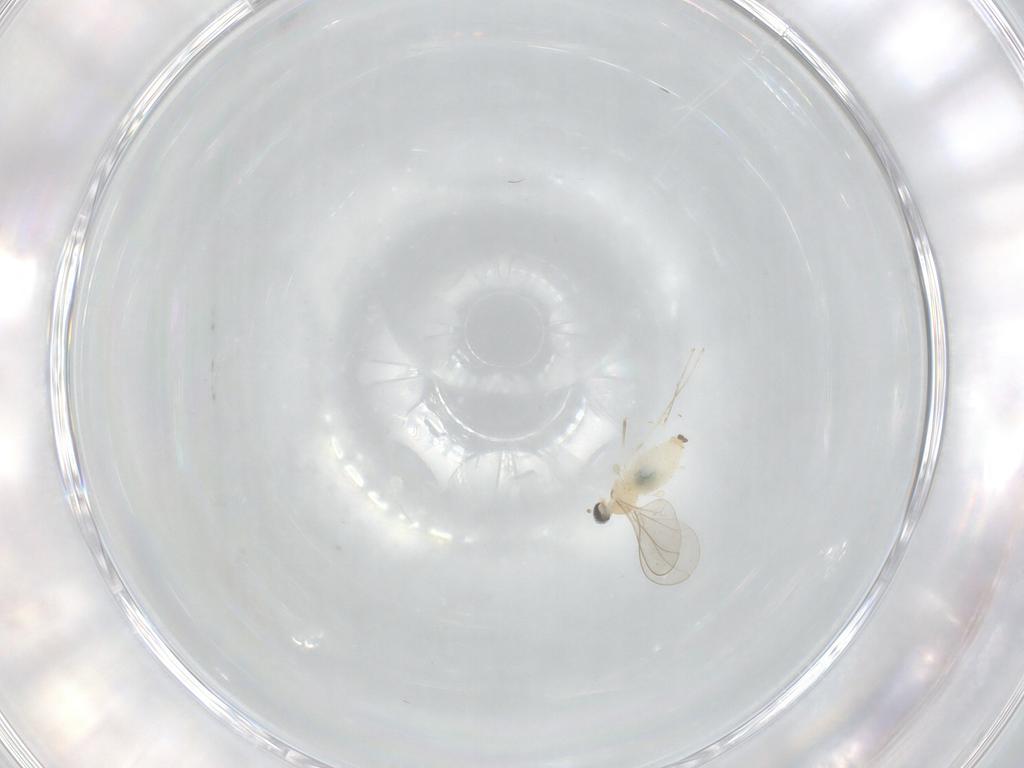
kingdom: Animalia
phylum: Arthropoda
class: Insecta
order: Diptera
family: Cecidomyiidae
